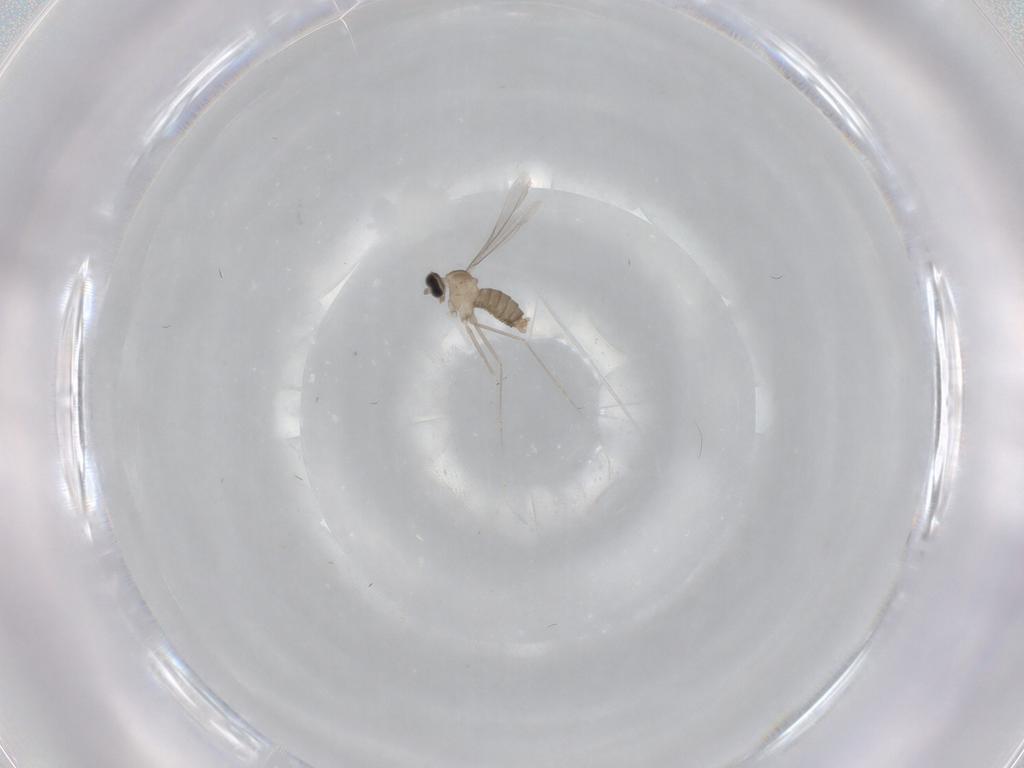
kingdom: Animalia
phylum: Arthropoda
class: Insecta
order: Diptera
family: Cecidomyiidae
